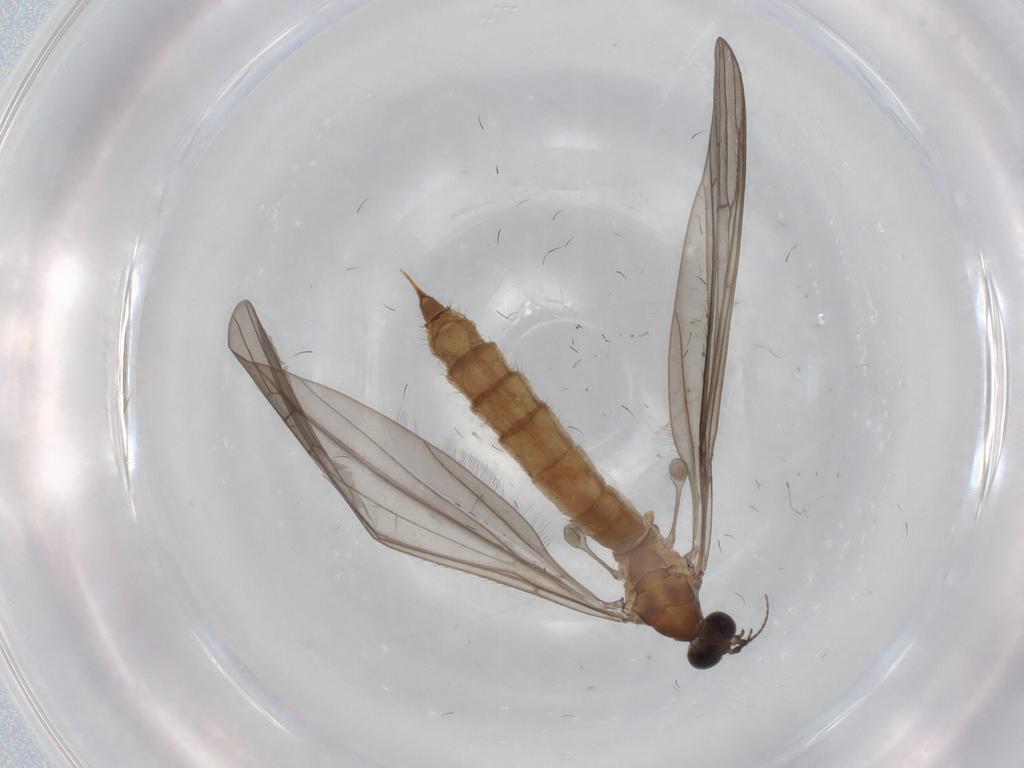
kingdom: Animalia
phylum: Arthropoda
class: Insecta
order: Diptera
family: Limoniidae
